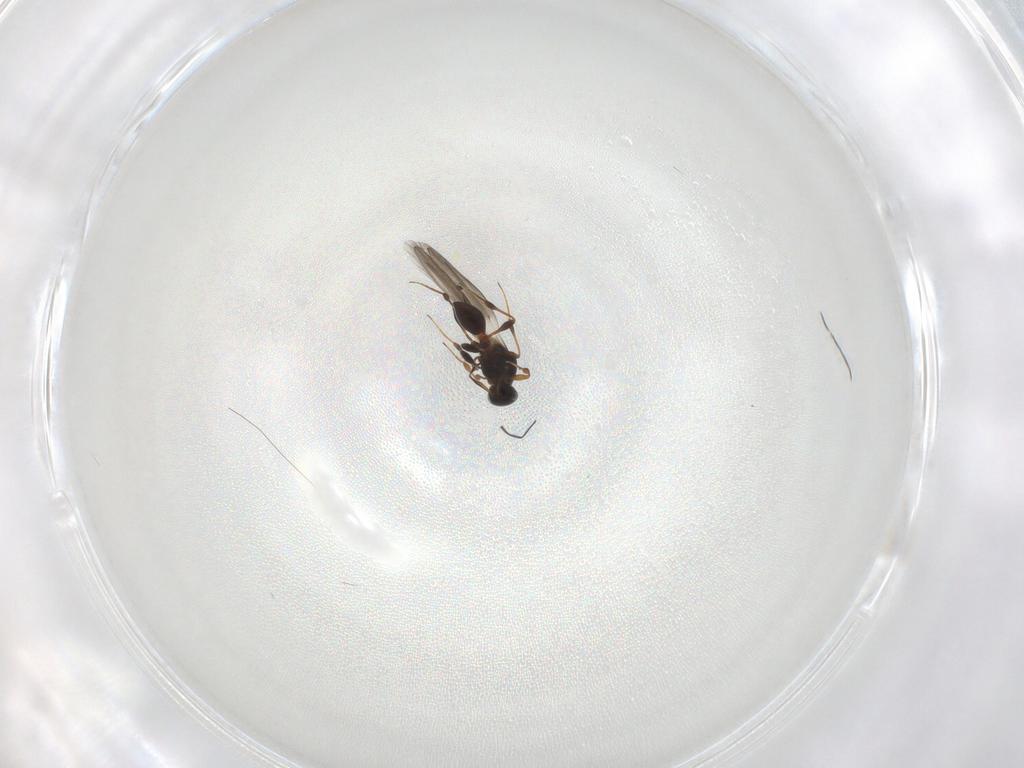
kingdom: Animalia
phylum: Arthropoda
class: Insecta
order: Hymenoptera
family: Platygastridae
